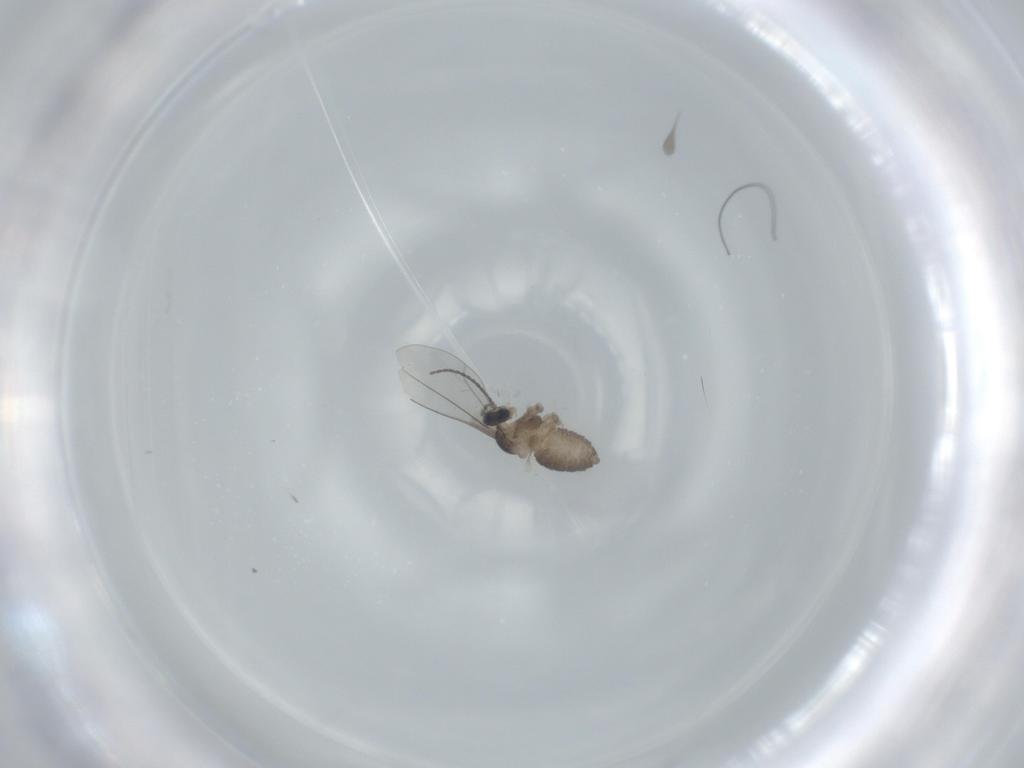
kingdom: Animalia
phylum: Arthropoda
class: Insecta
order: Diptera
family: Cecidomyiidae
